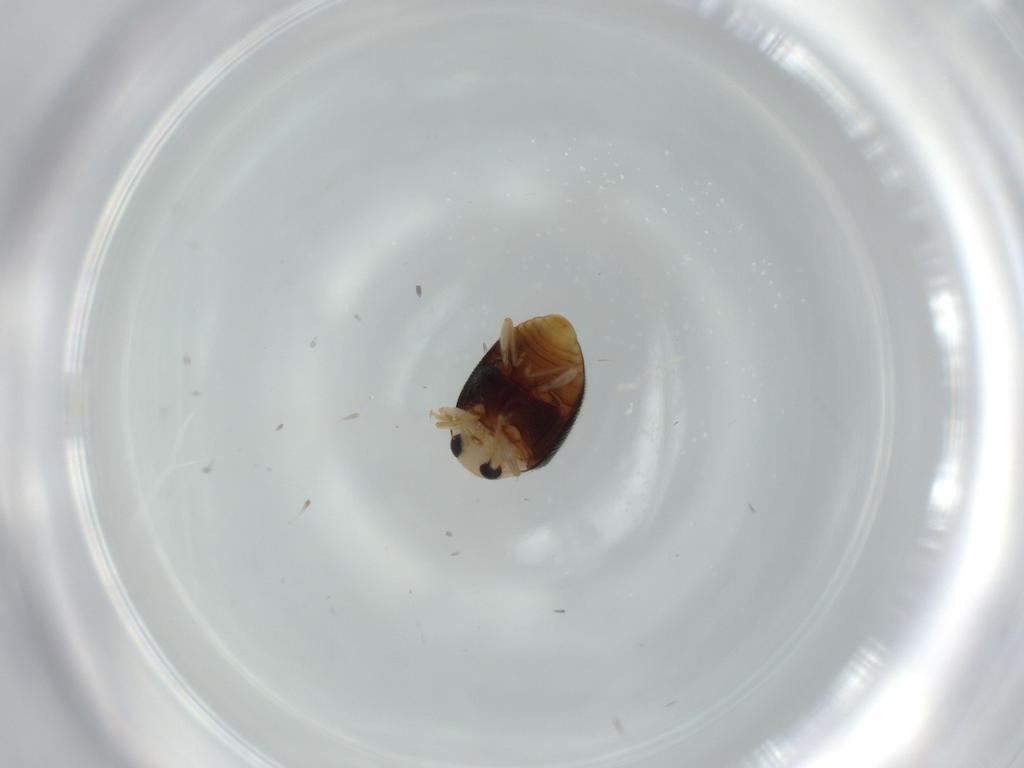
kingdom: Animalia
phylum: Arthropoda
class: Insecta
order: Coleoptera
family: Coccinellidae
